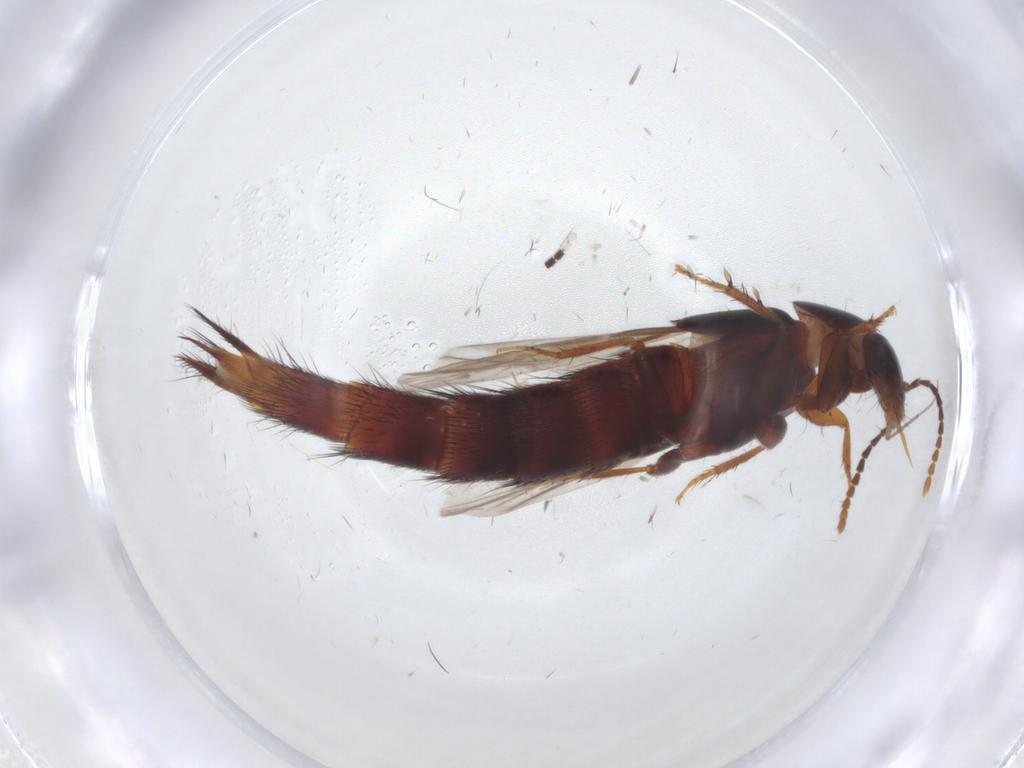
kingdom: Animalia
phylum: Arthropoda
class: Insecta
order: Coleoptera
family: Staphylinidae
